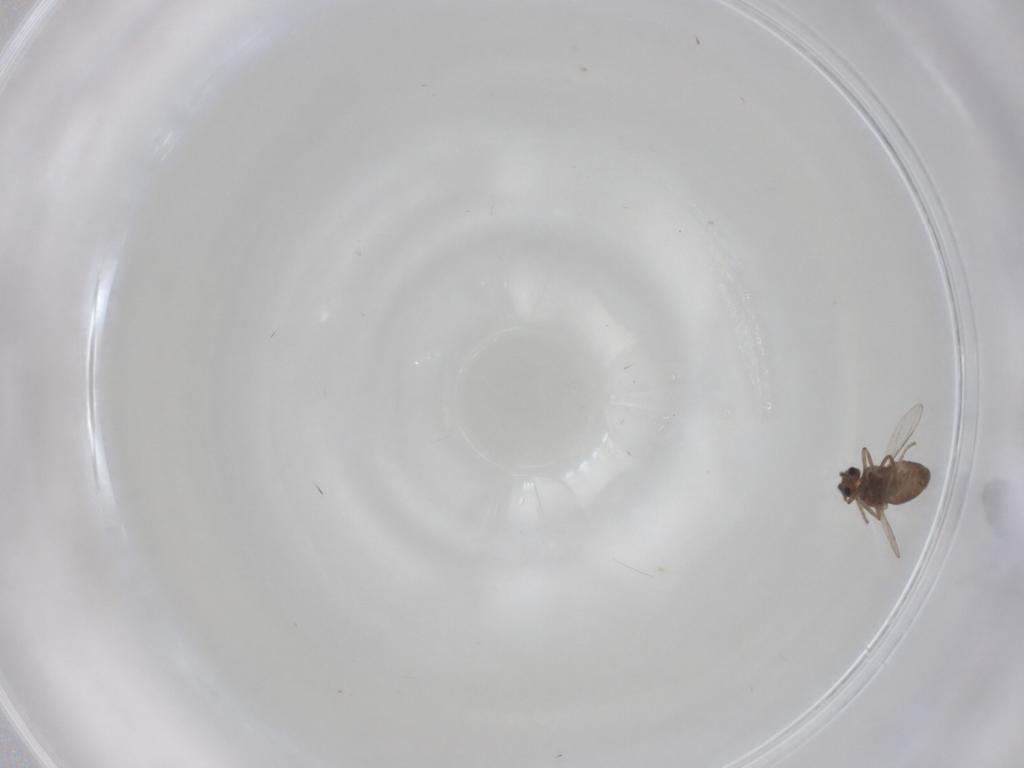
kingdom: Animalia
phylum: Arthropoda
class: Insecta
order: Diptera
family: Ceratopogonidae
